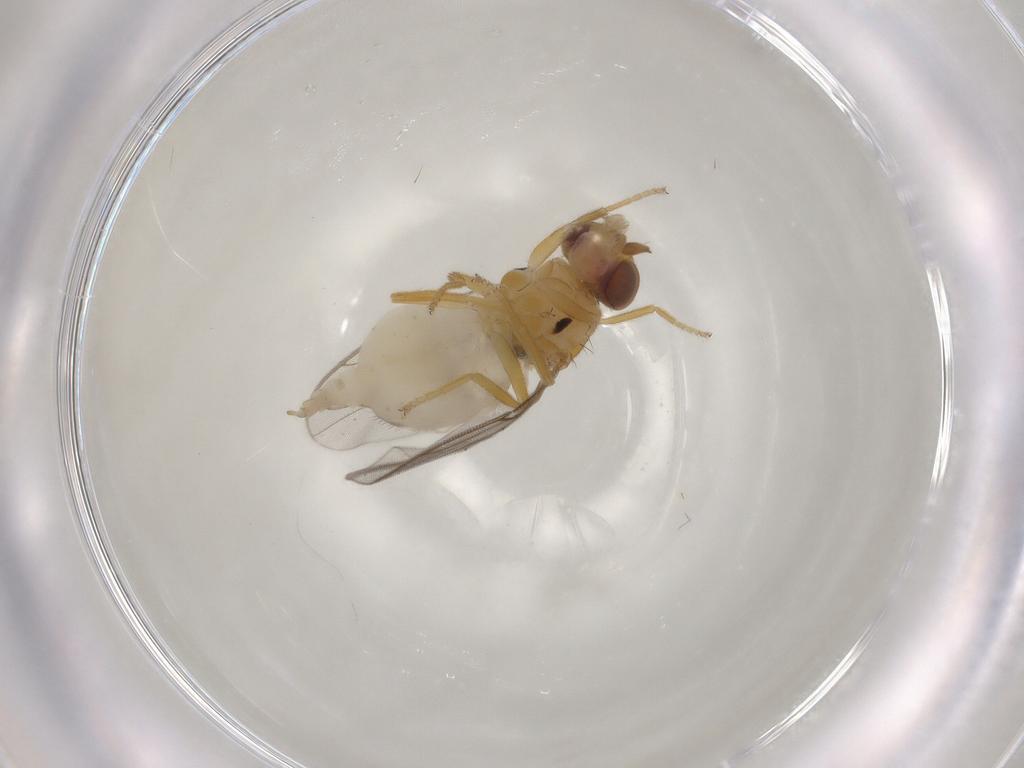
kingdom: Animalia
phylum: Arthropoda
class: Insecta
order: Diptera
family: Chloropidae
